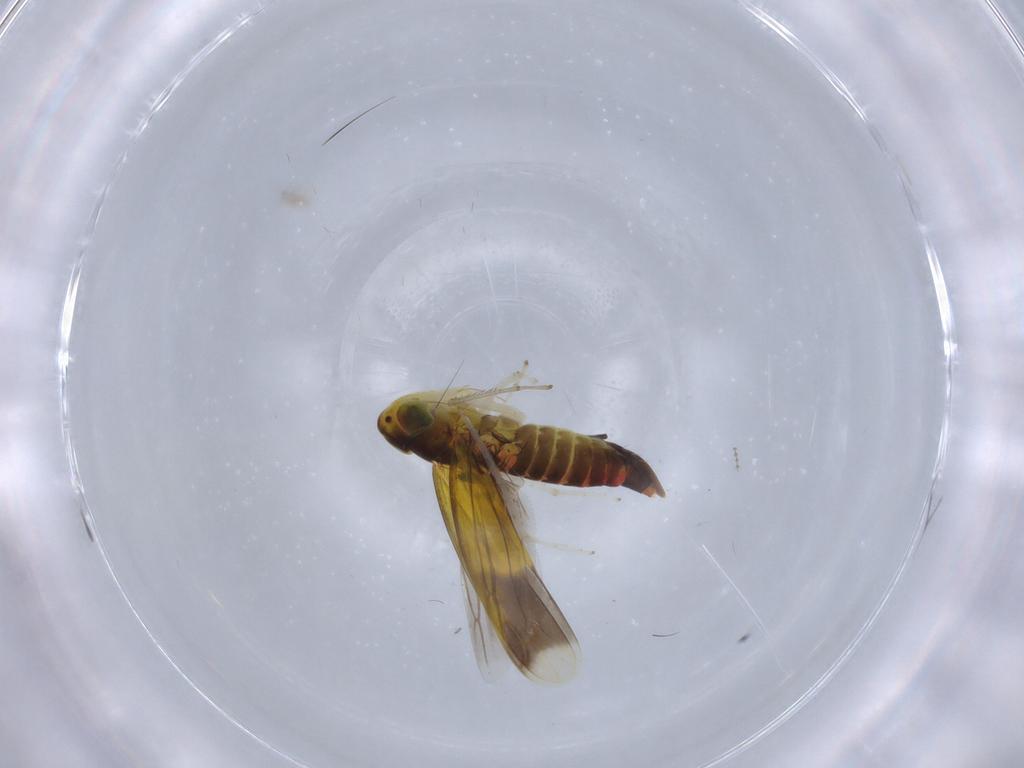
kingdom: Animalia
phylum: Arthropoda
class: Insecta
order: Hemiptera
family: Cicadellidae
